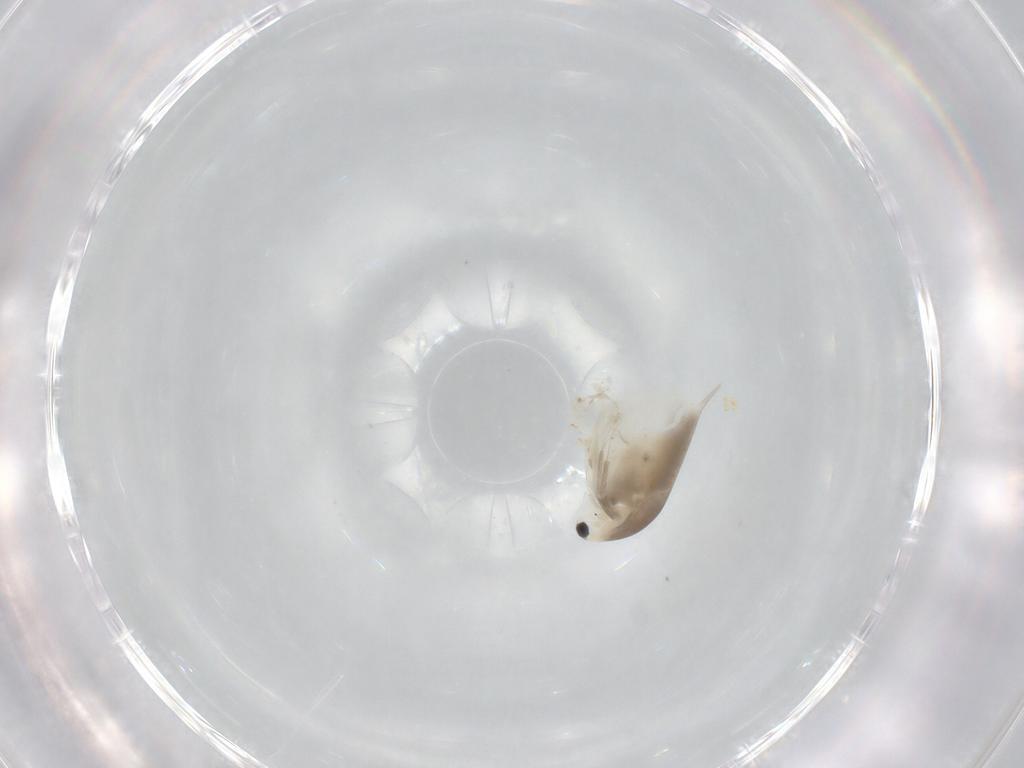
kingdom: Animalia
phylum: Arthropoda
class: Branchiopoda
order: Diplostraca
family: Daphniidae
